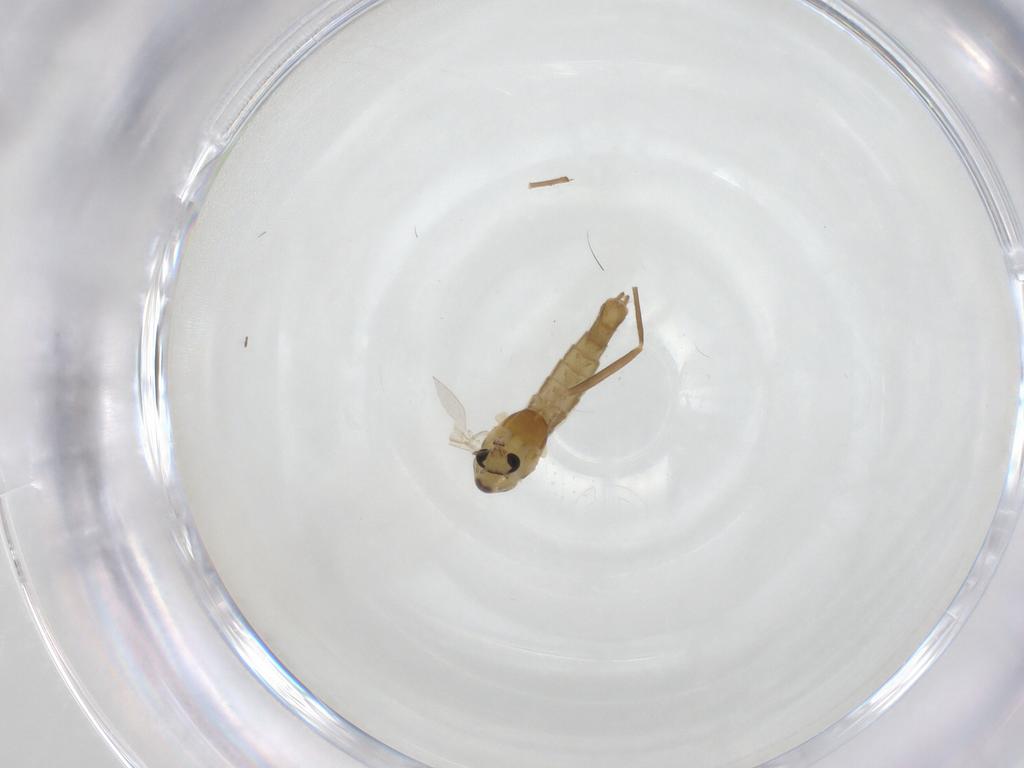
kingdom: Animalia
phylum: Arthropoda
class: Insecta
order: Diptera
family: Chironomidae
